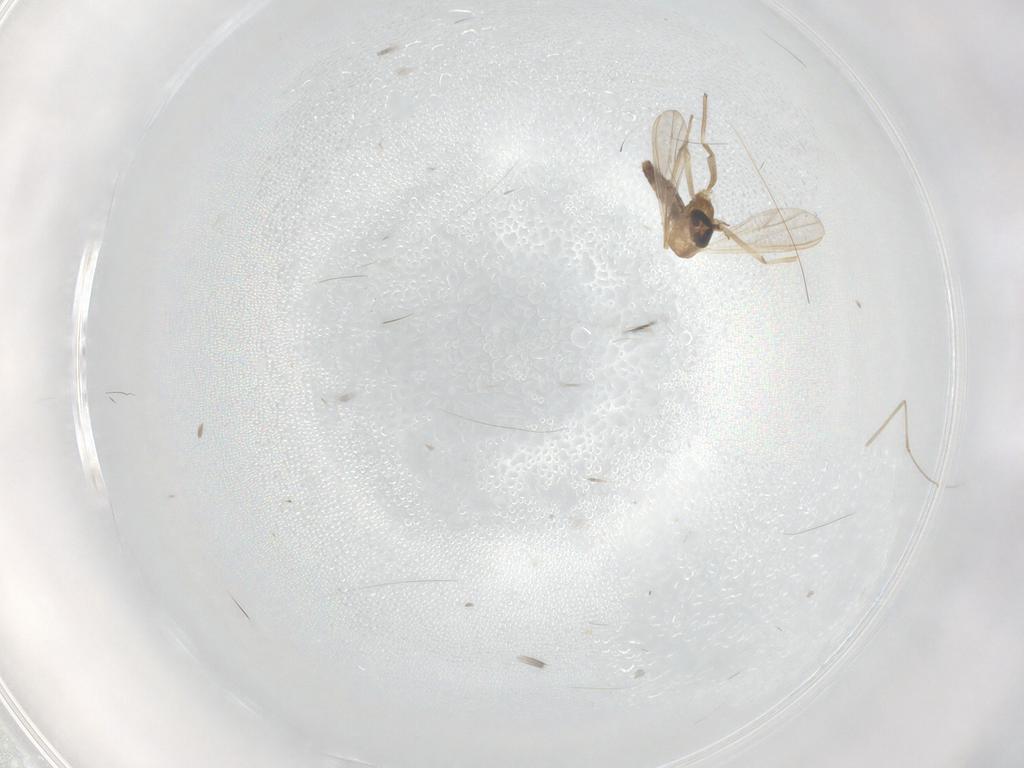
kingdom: Animalia
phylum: Arthropoda
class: Insecta
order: Diptera
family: Chironomidae
